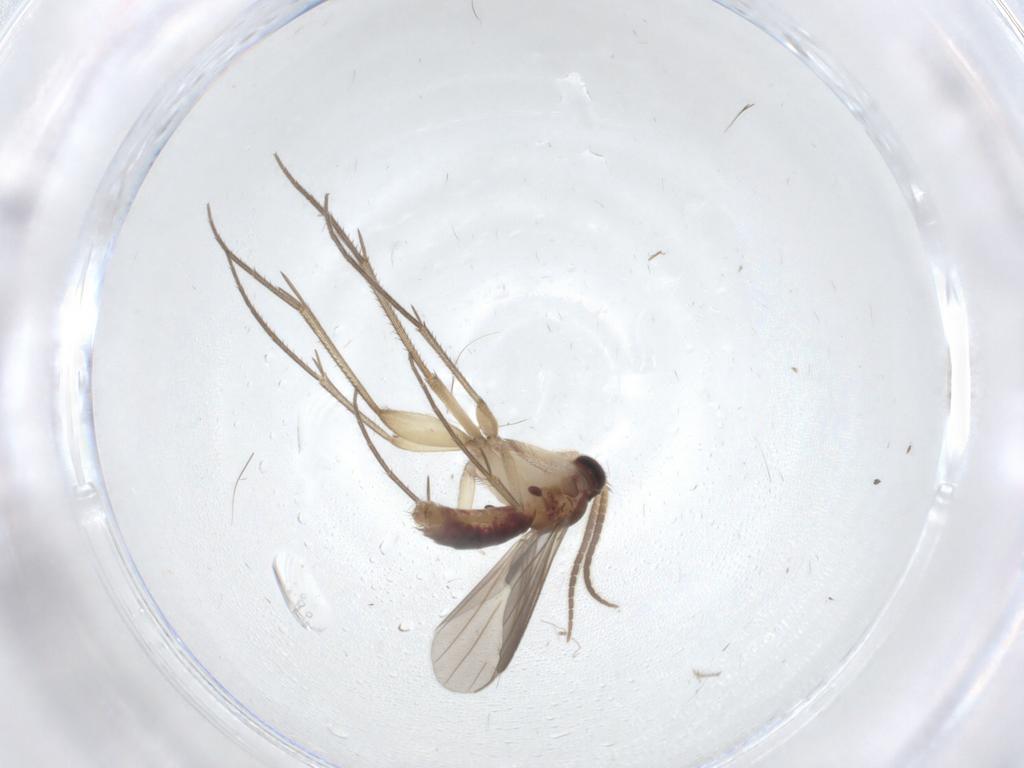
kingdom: Animalia
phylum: Arthropoda
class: Insecta
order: Diptera
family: Mycetophilidae
